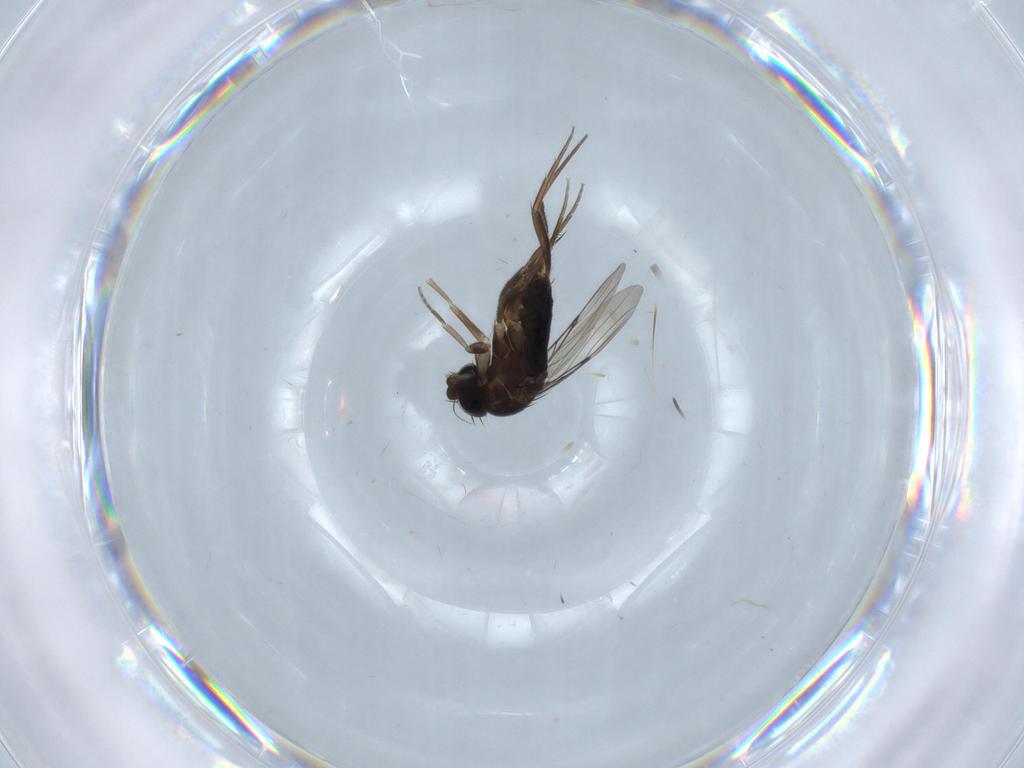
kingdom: Animalia
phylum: Arthropoda
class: Insecta
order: Diptera
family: Phoridae
